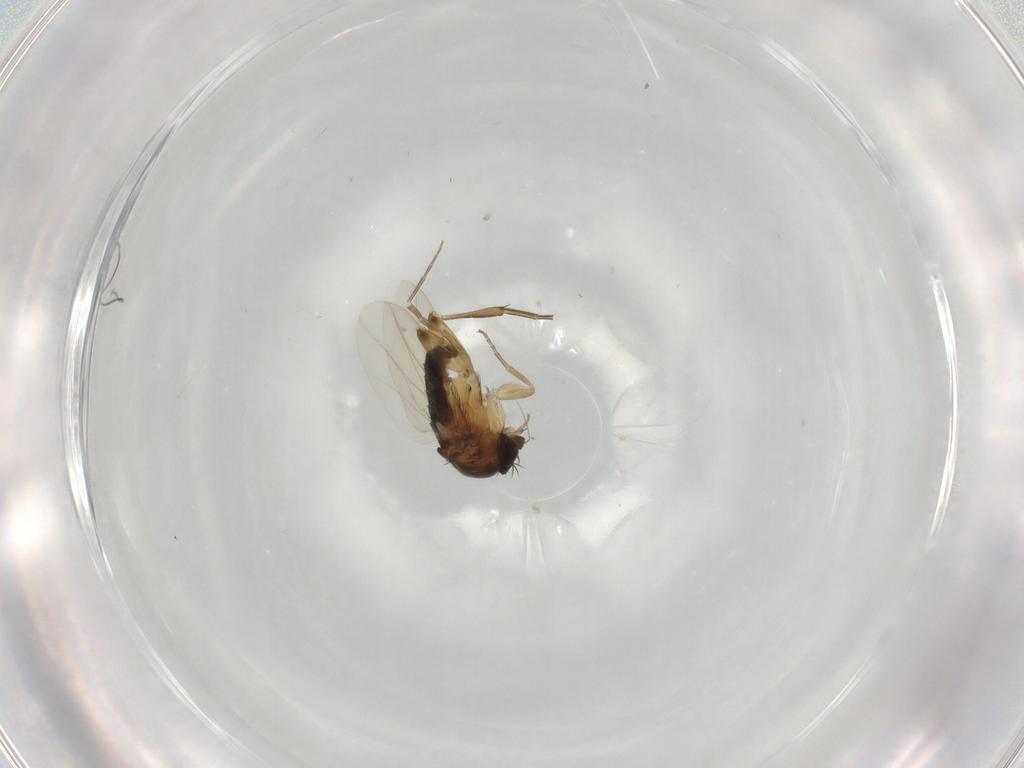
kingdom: Animalia
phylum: Arthropoda
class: Insecta
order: Diptera
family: Phoridae
